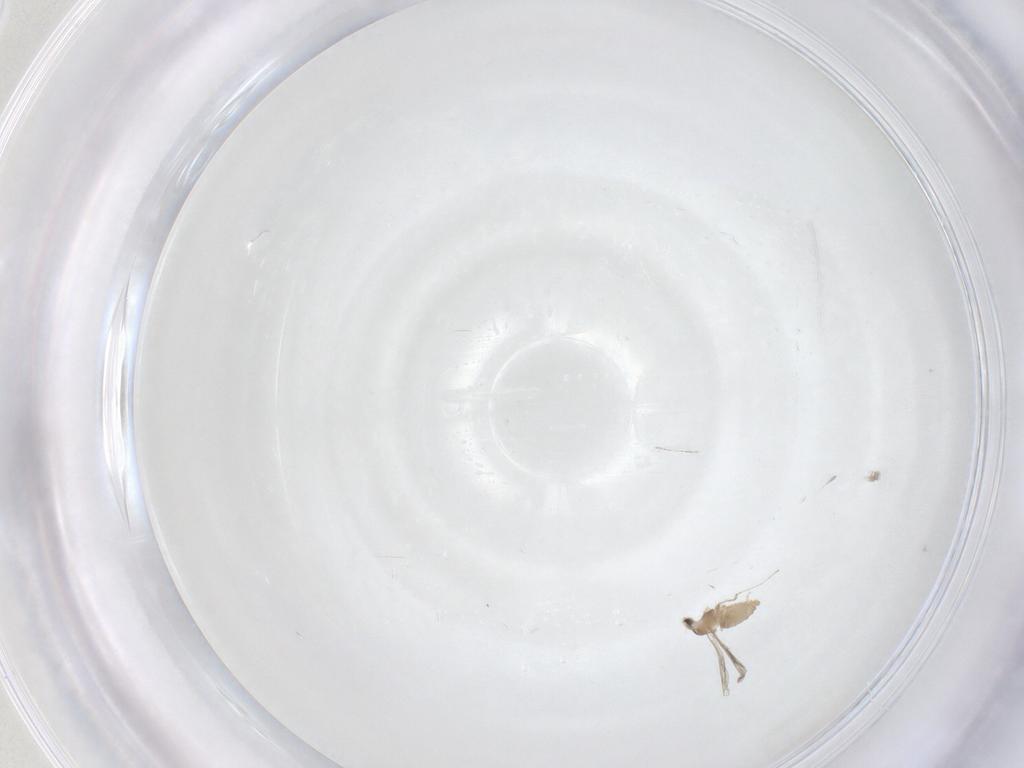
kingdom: Animalia
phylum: Arthropoda
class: Insecta
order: Diptera
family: Cecidomyiidae
